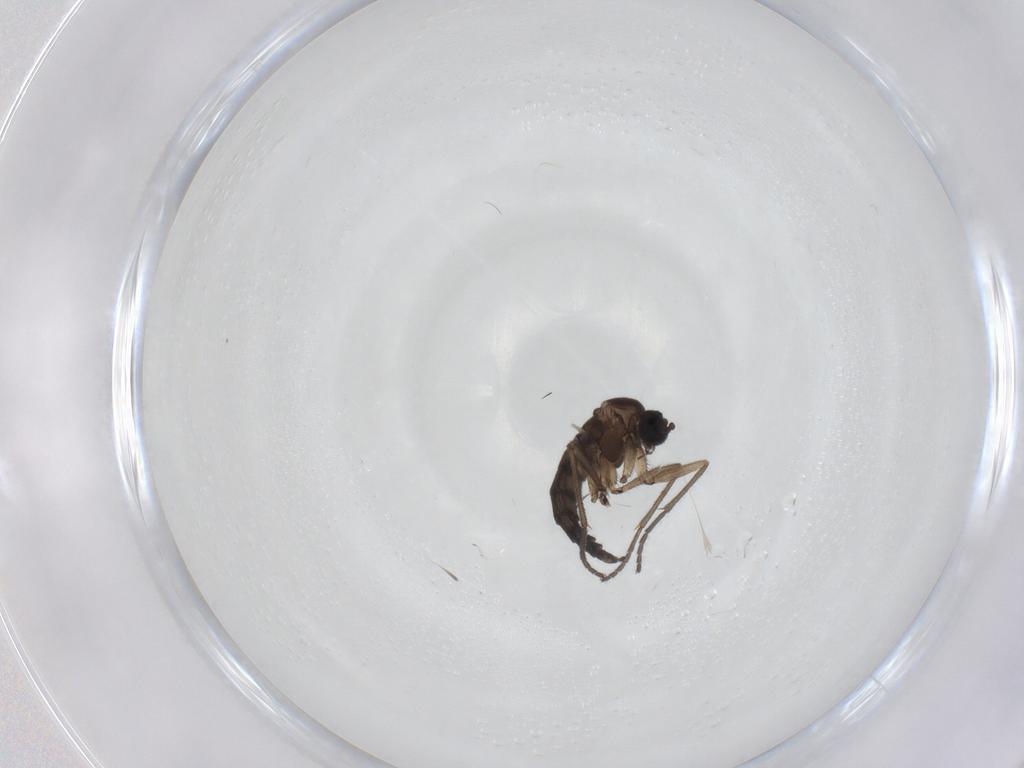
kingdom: Animalia
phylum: Arthropoda
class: Insecta
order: Diptera
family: Sciaridae
